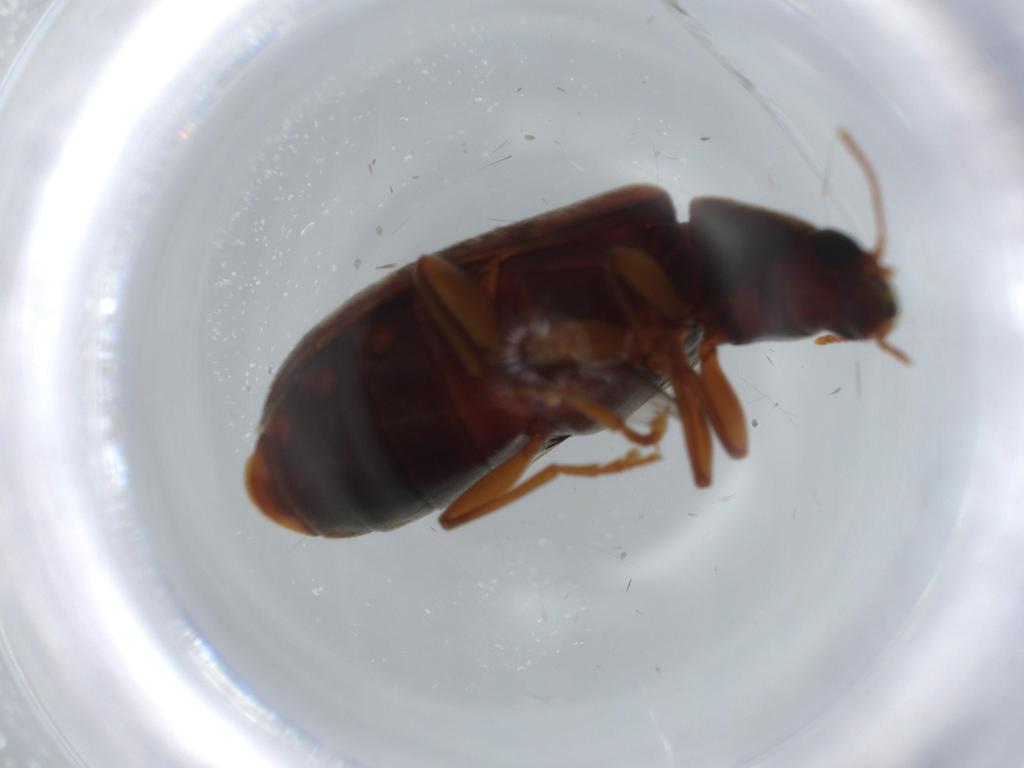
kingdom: Animalia
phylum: Arthropoda
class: Insecta
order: Coleoptera
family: Mycteridae
